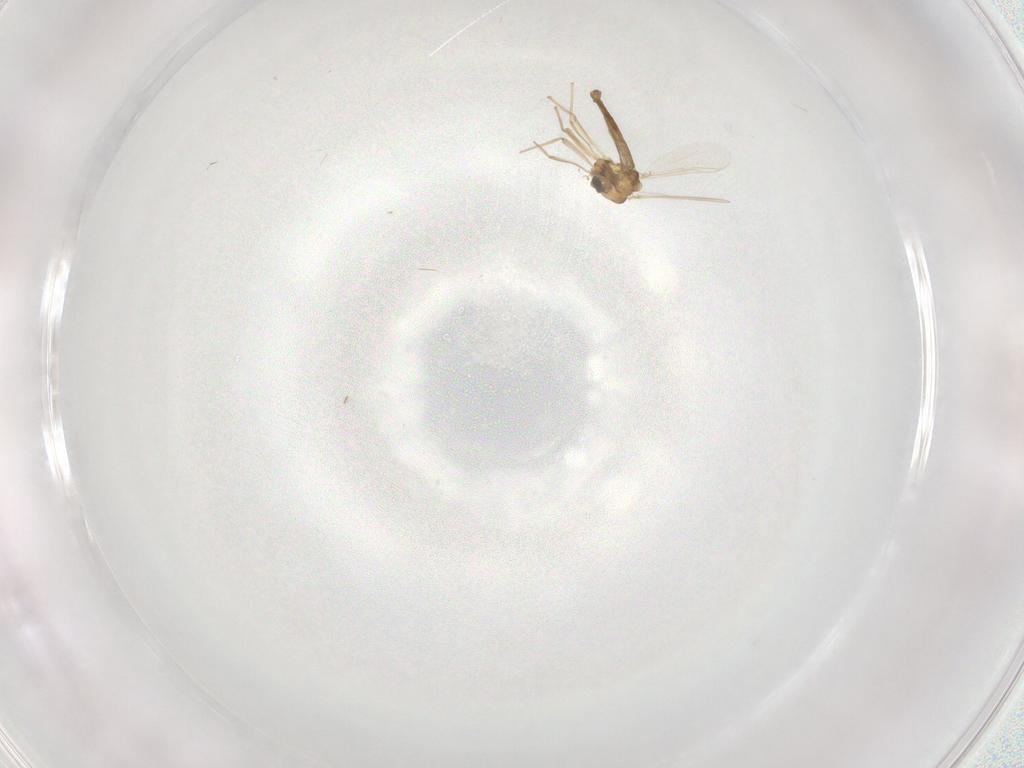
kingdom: Animalia
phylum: Arthropoda
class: Insecta
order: Diptera
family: Chironomidae
